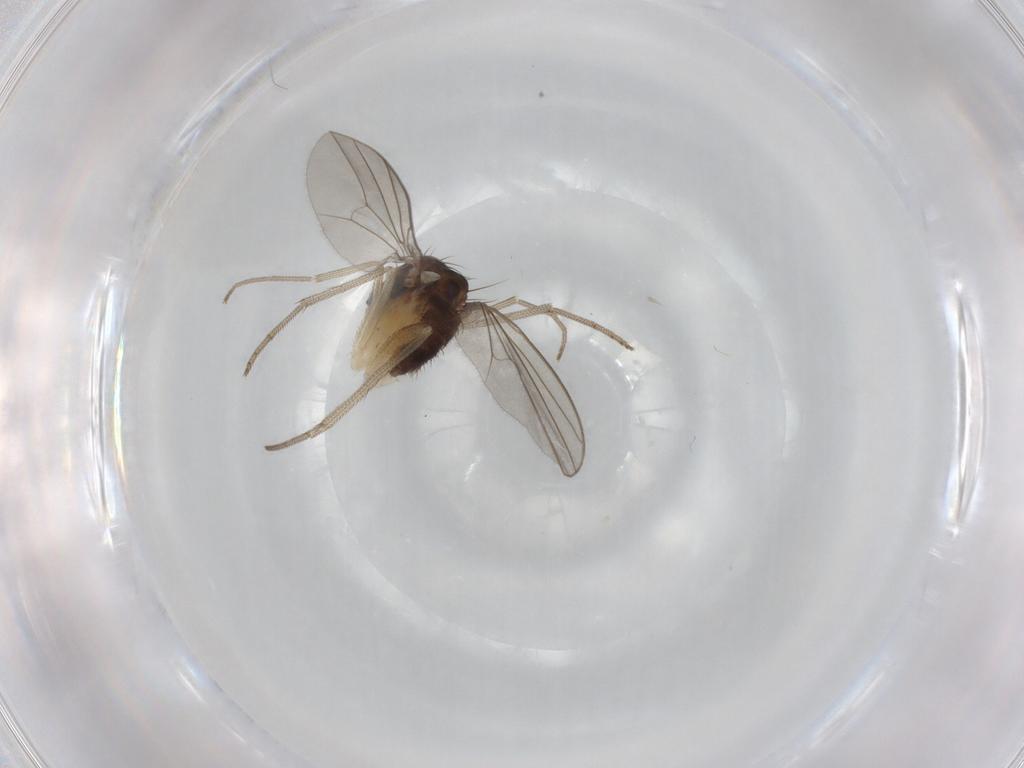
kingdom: Animalia
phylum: Arthropoda
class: Insecta
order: Diptera
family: Dolichopodidae
